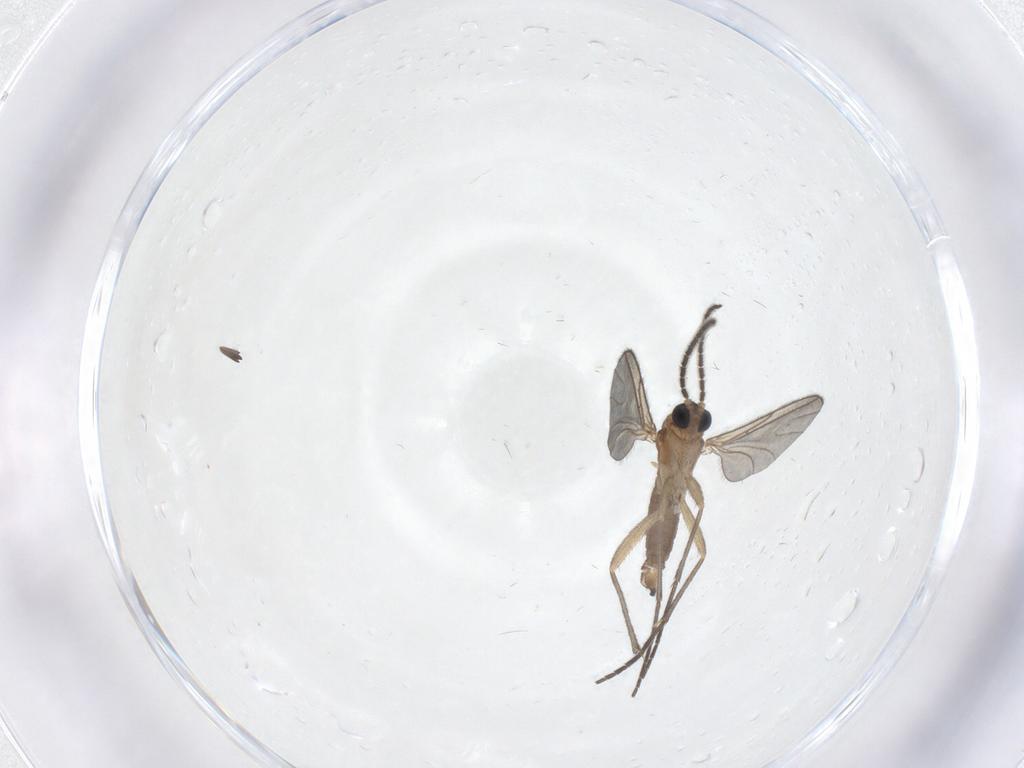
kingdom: Animalia
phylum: Arthropoda
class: Insecta
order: Diptera
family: Sciaridae
